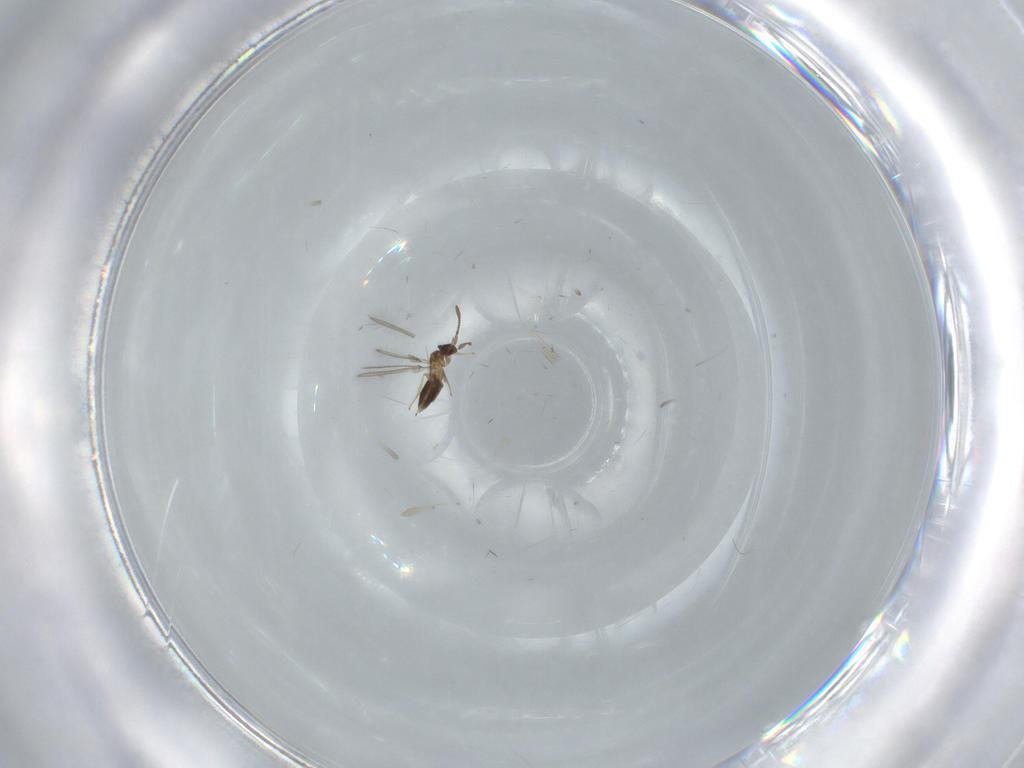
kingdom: Animalia
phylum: Arthropoda
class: Insecta
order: Hymenoptera
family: Mymaridae
